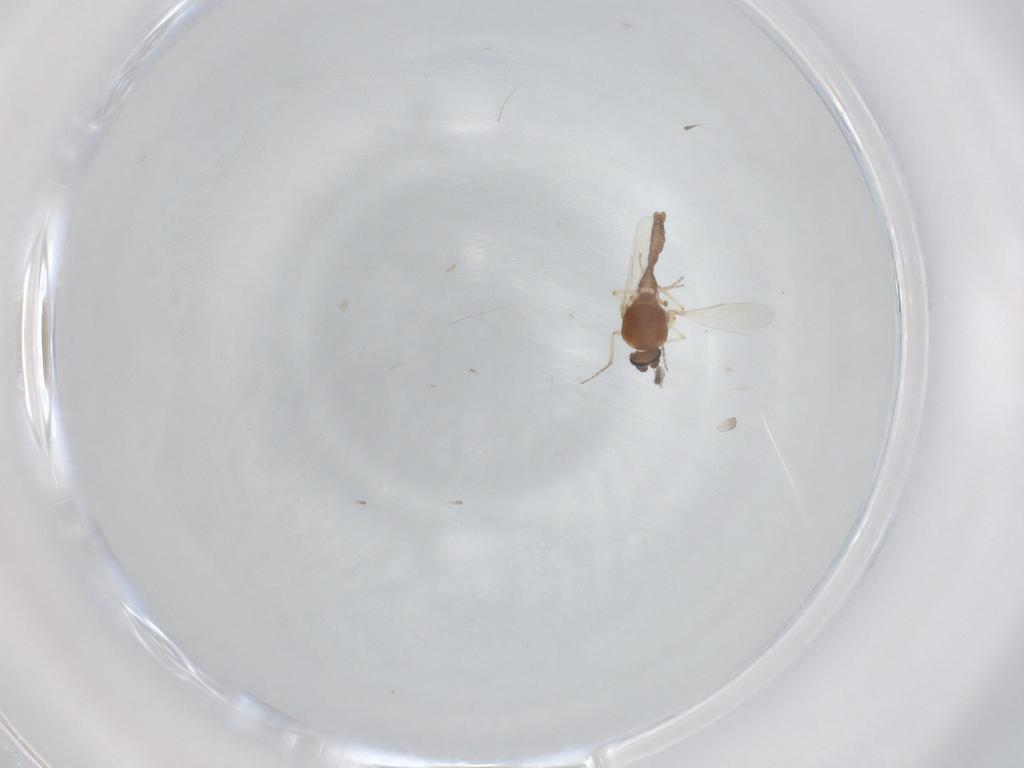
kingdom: Animalia
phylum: Arthropoda
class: Insecta
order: Diptera
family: Ceratopogonidae
